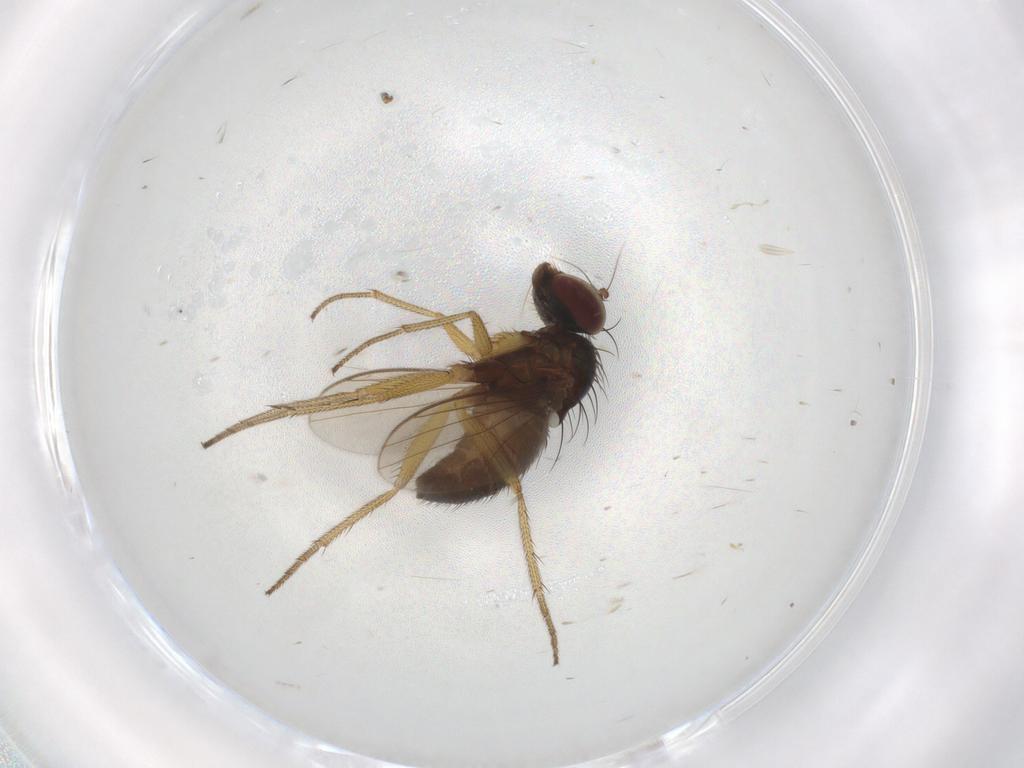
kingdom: Animalia
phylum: Arthropoda
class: Insecta
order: Diptera
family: Dolichopodidae
